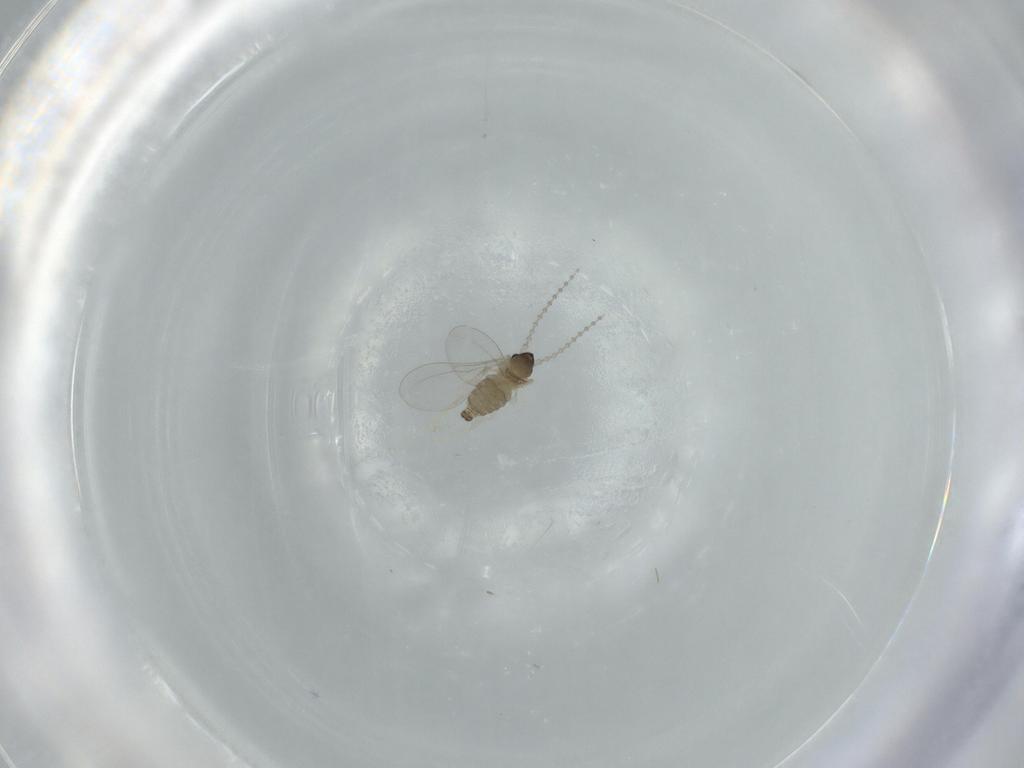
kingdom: Animalia
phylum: Arthropoda
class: Insecta
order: Diptera
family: Cecidomyiidae
